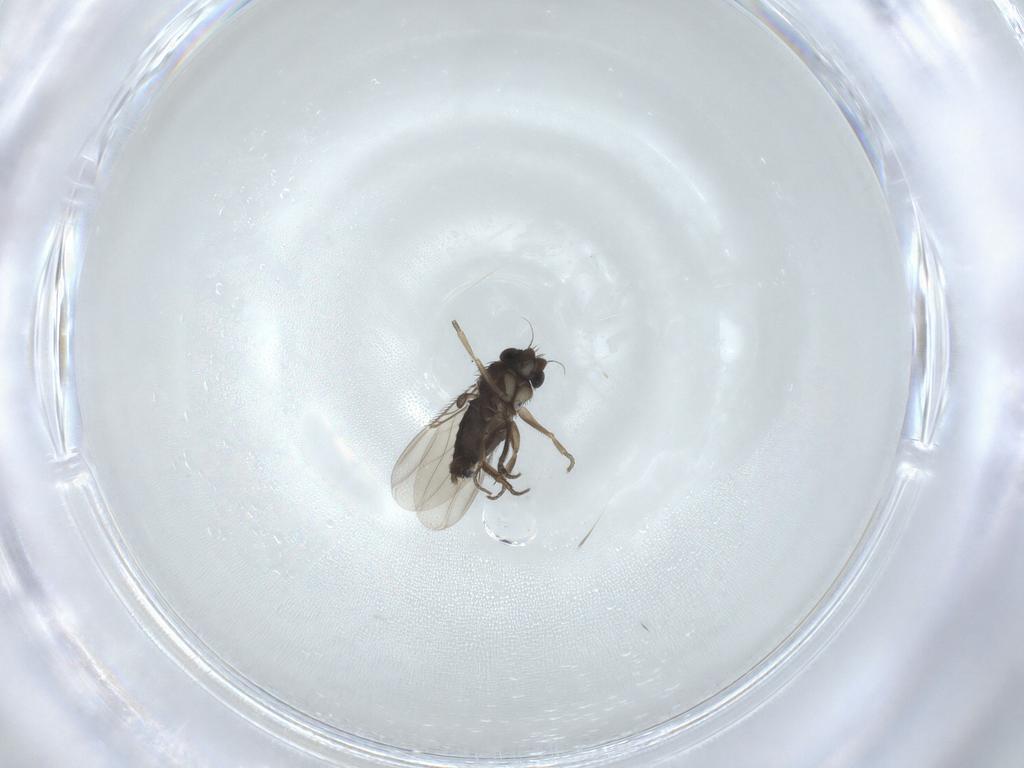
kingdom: Animalia
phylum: Arthropoda
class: Insecta
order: Diptera
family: Phoridae
